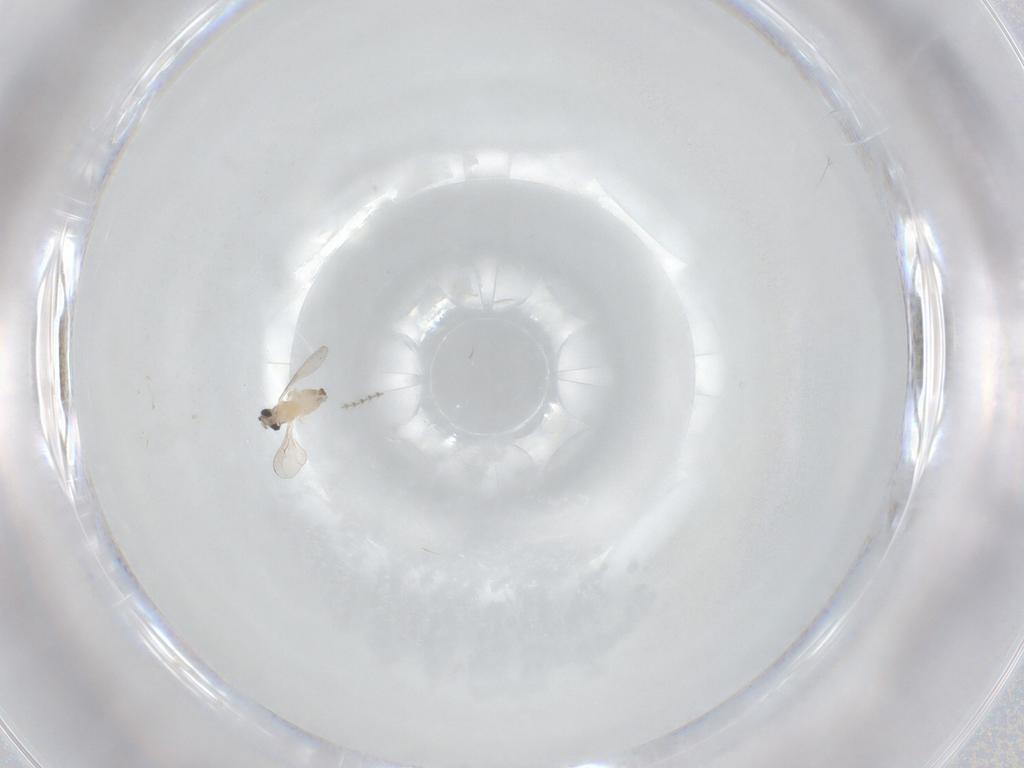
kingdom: Animalia
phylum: Arthropoda
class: Insecta
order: Diptera
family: Cecidomyiidae
